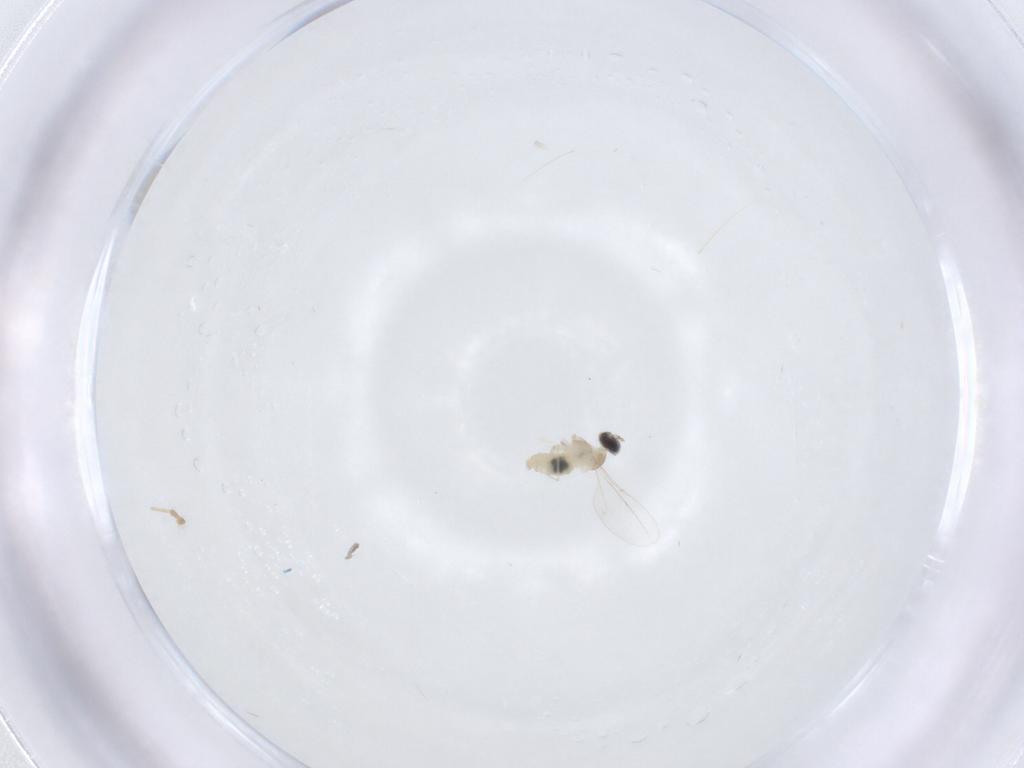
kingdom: Animalia
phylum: Arthropoda
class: Insecta
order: Diptera
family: Cecidomyiidae
